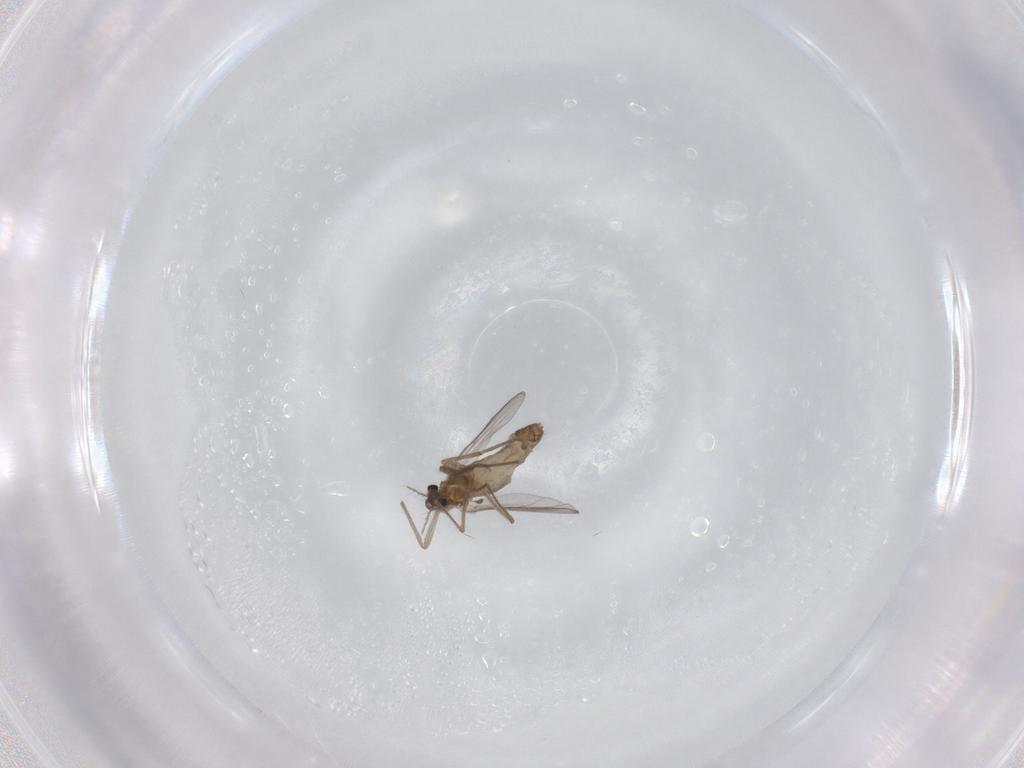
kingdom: Animalia
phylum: Arthropoda
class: Insecta
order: Diptera
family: Chironomidae
